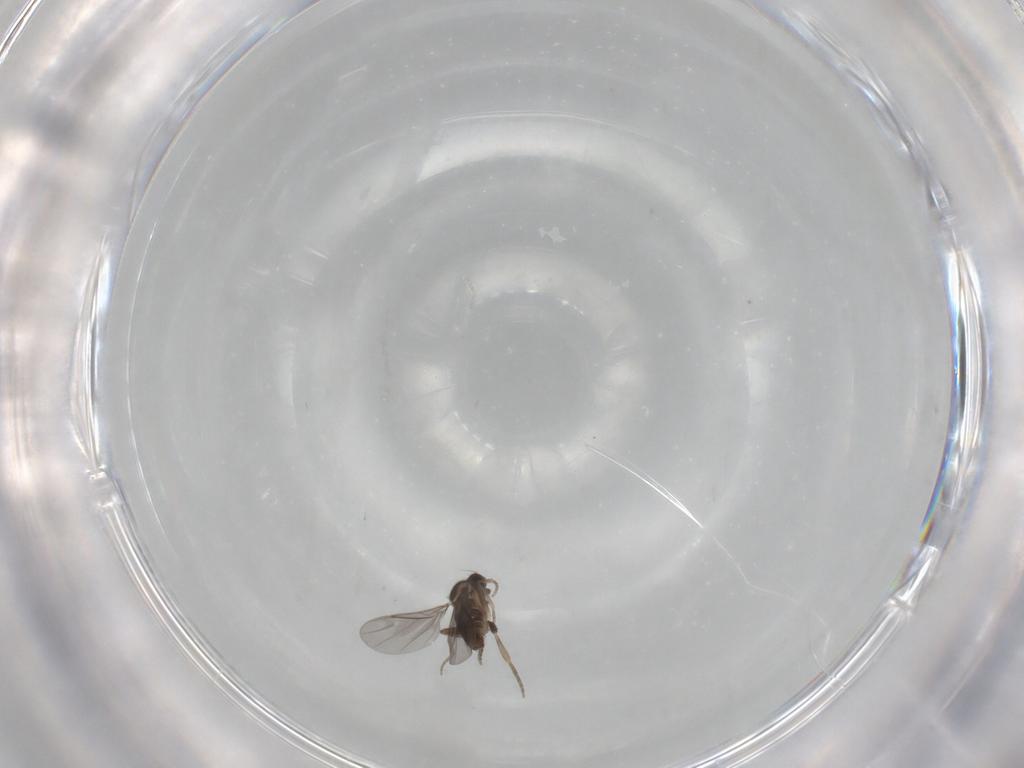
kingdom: Animalia
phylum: Arthropoda
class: Insecta
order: Diptera
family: Phoridae
